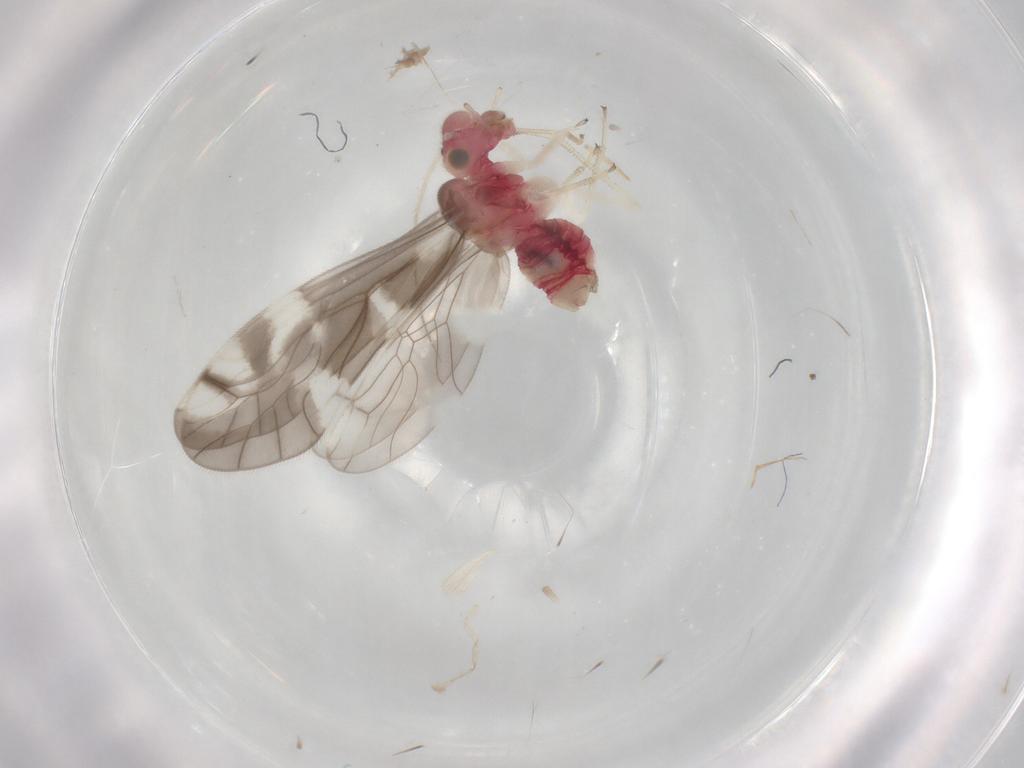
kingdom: Animalia
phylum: Arthropoda
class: Insecta
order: Psocodea
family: Caeciliusidae
